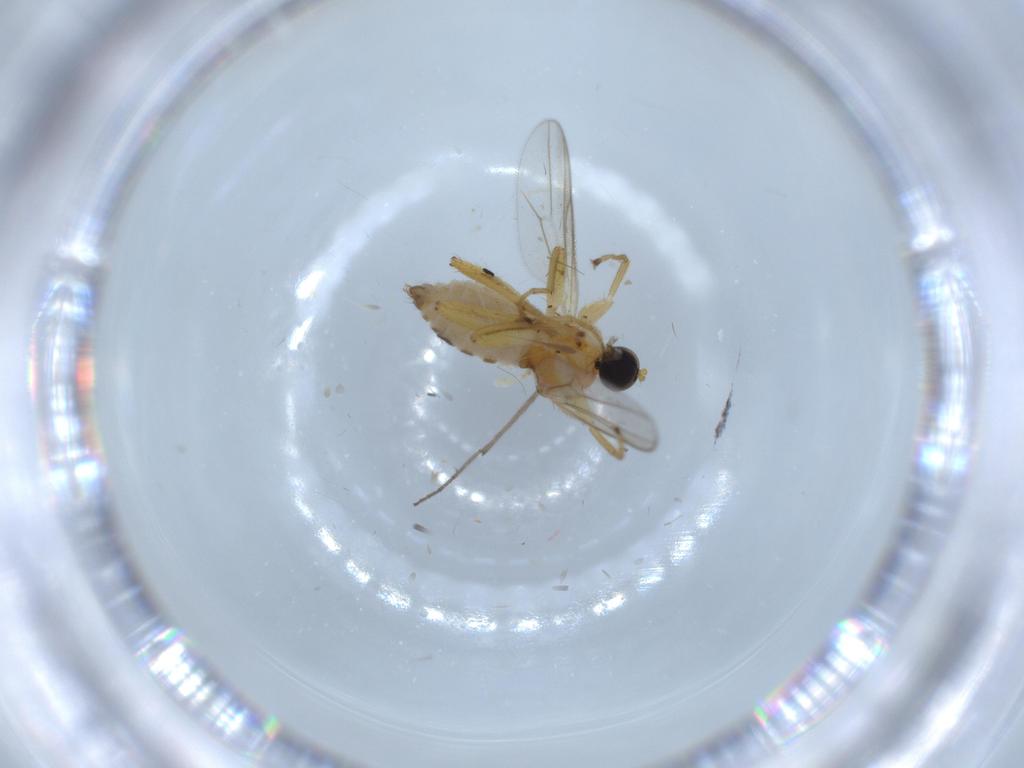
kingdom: Animalia
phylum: Arthropoda
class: Insecta
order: Diptera
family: Hybotidae
